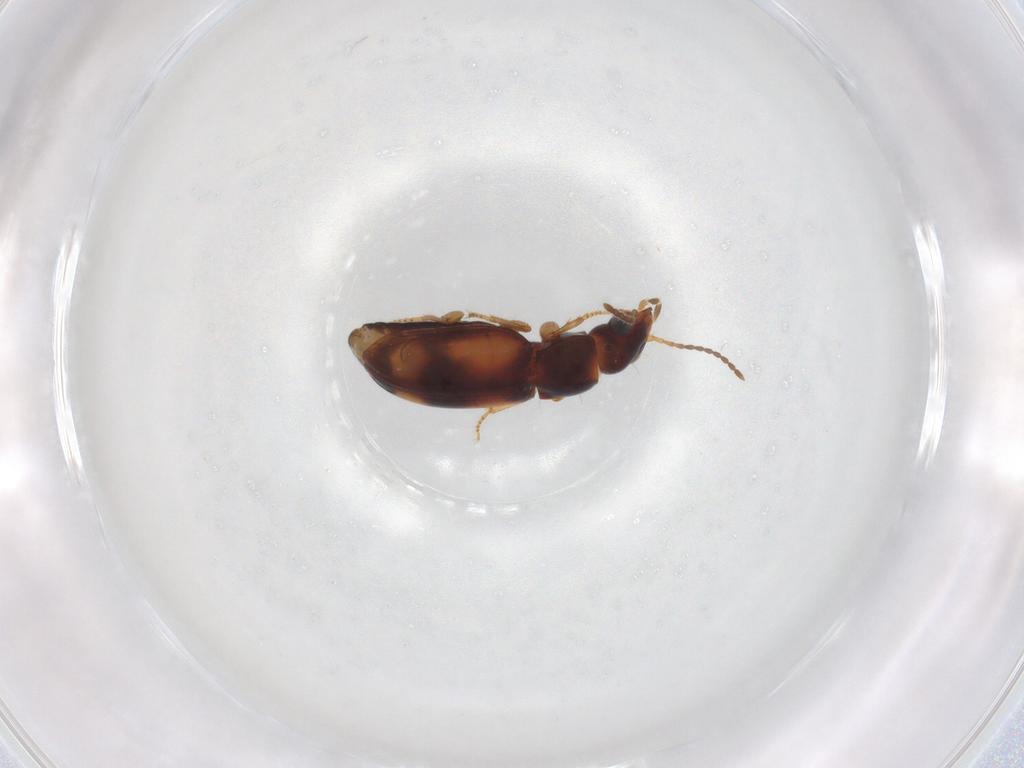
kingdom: Animalia
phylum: Arthropoda
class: Insecta
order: Coleoptera
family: Carabidae
